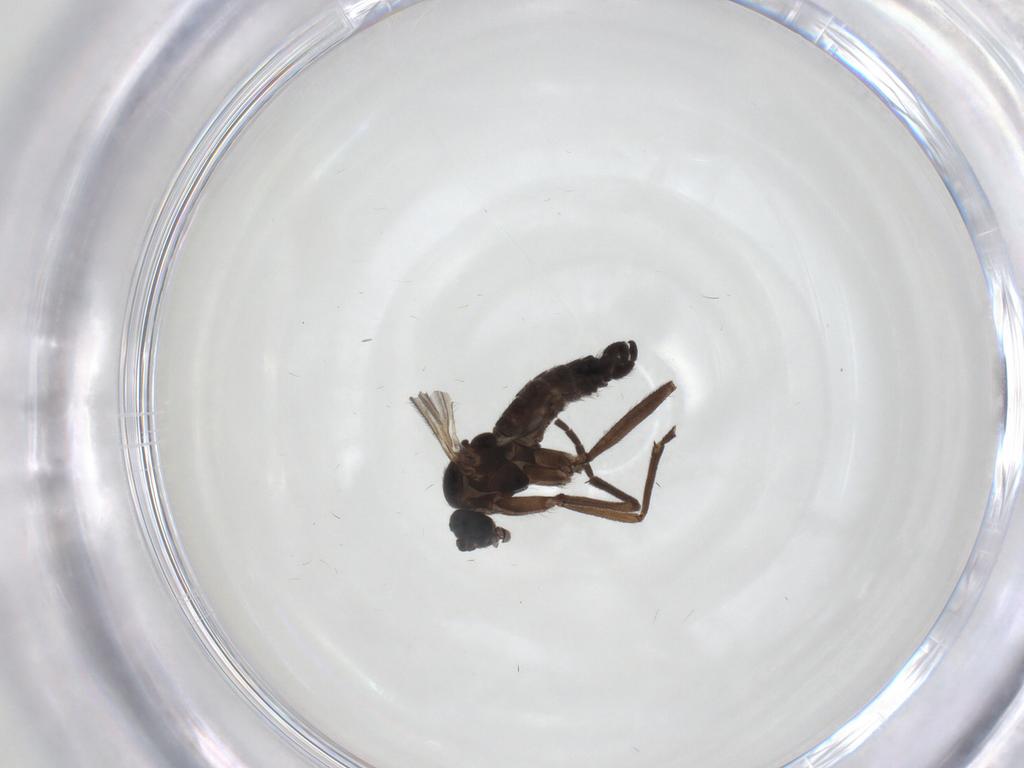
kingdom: Animalia
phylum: Arthropoda
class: Insecta
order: Diptera
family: Sciaridae
